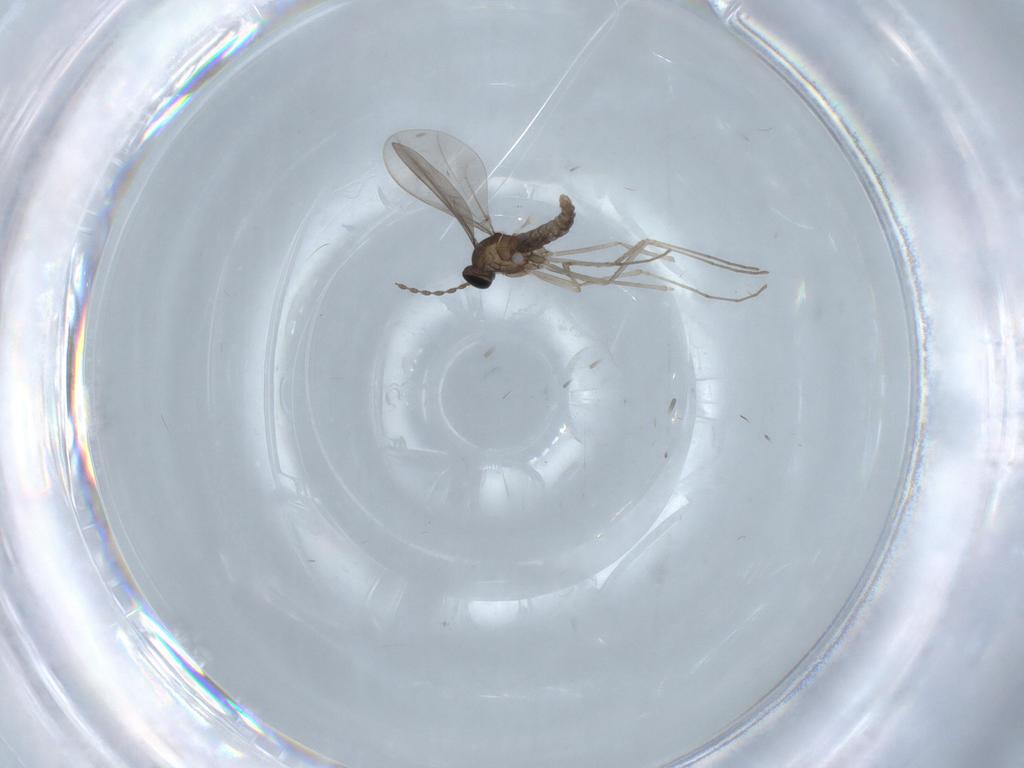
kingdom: Animalia
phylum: Arthropoda
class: Insecta
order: Diptera
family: Cecidomyiidae
